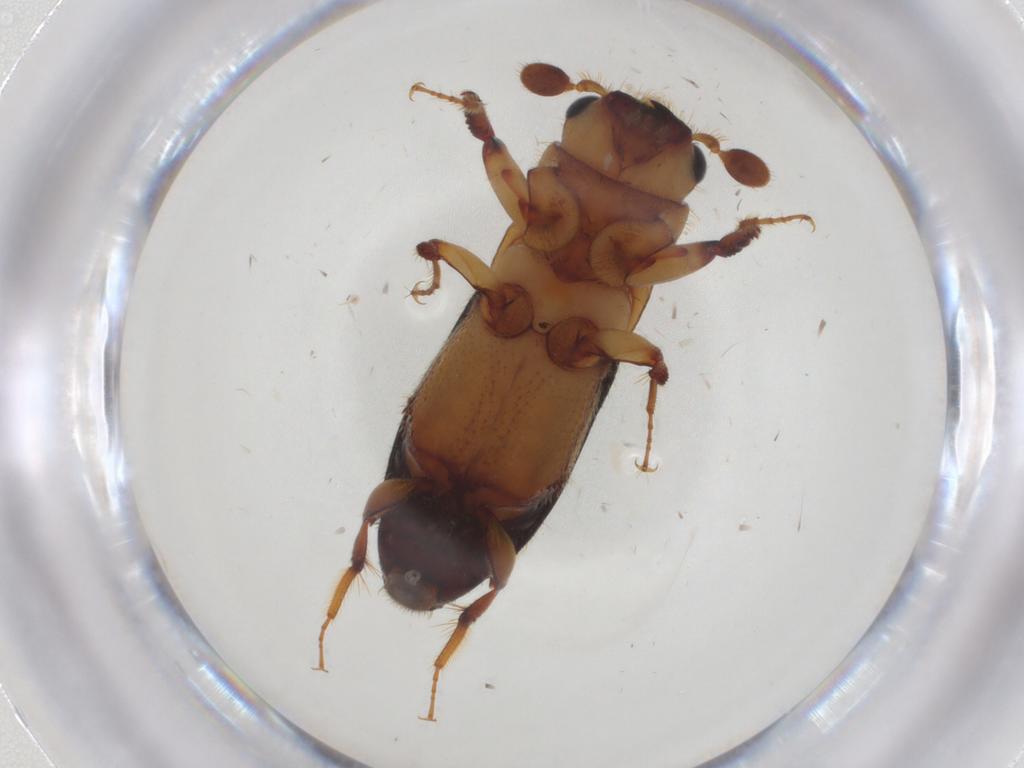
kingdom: Animalia
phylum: Arthropoda
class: Insecta
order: Coleoptera
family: Curculionidae
